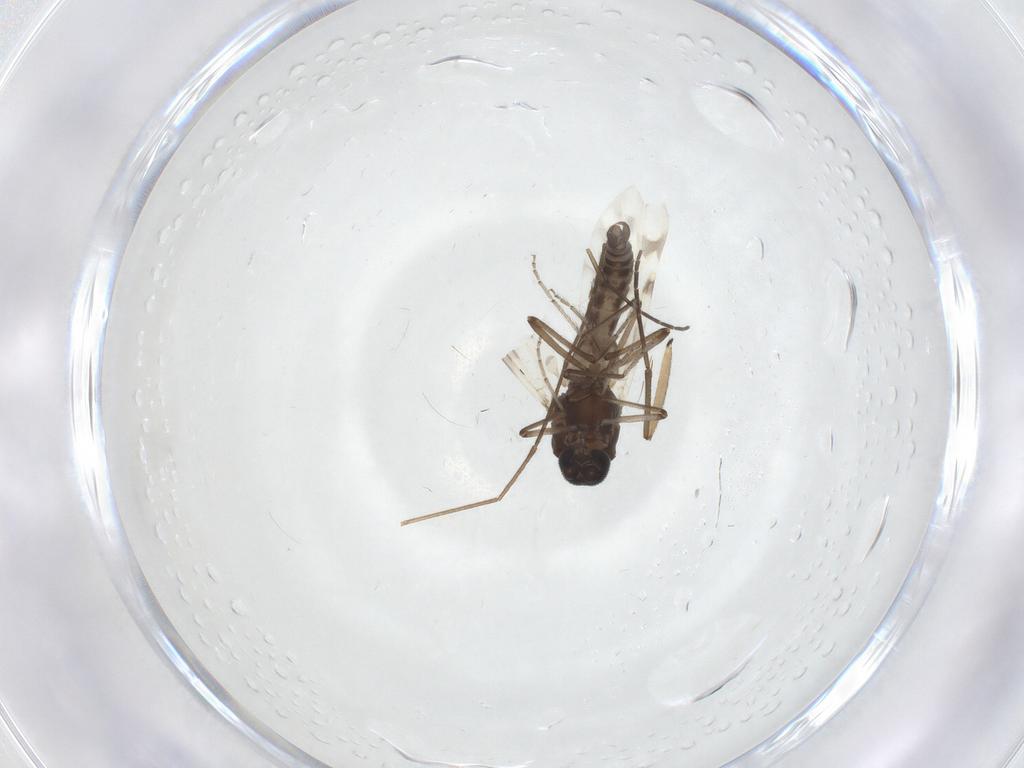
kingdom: Animalia
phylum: Arthropoda
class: Insecta
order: Diptera
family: Ceratopogonidae
